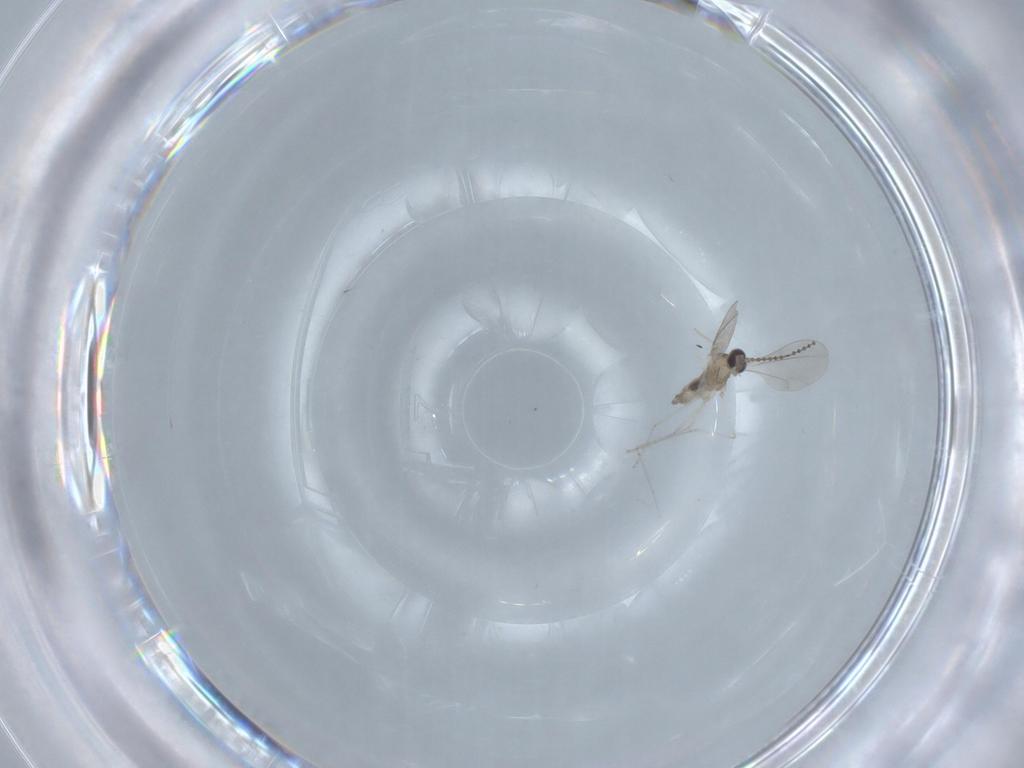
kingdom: Animalia
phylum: Arthropoda
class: Insecta
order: Diptera
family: Cecidomyiidae
